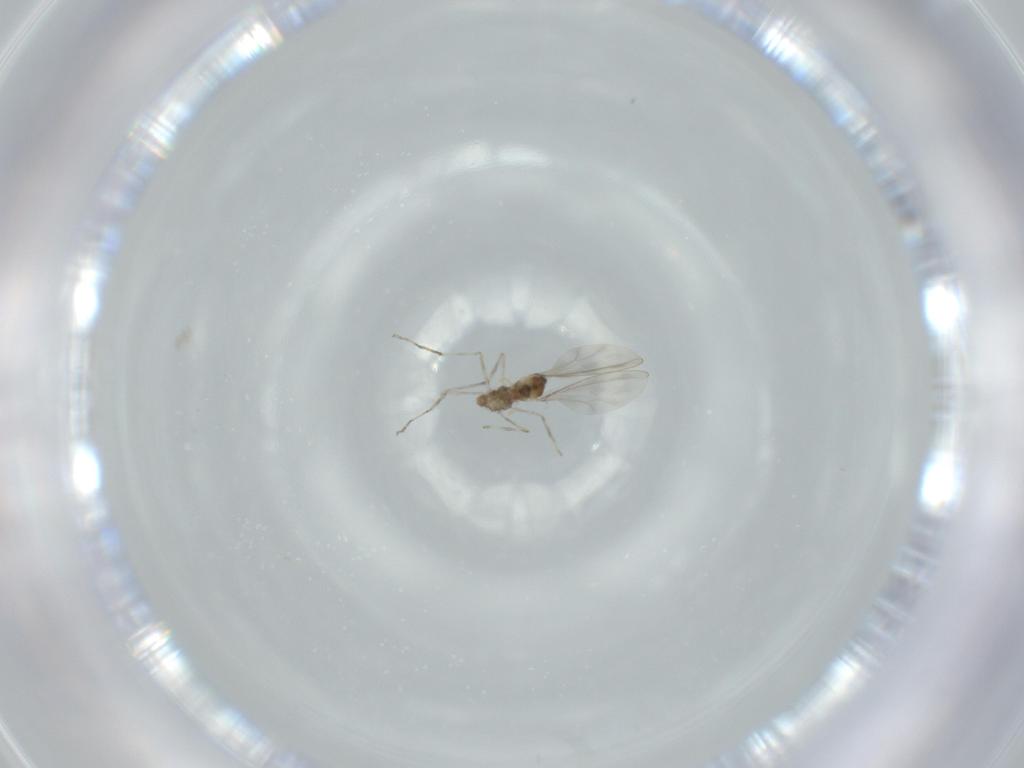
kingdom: Animalia
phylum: Arthropoda
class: Insecta
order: Diptera
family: Cecidomyiidae
